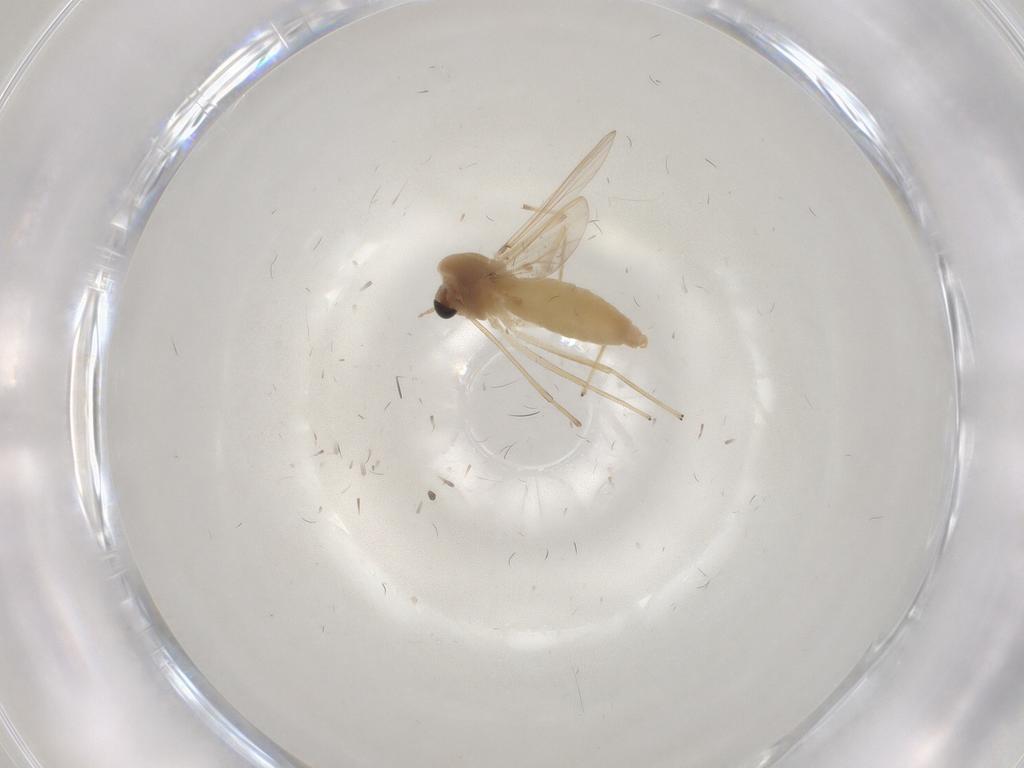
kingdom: Animalia
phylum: Arthropoda
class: Insecta
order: Diptera
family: Chironomidae
